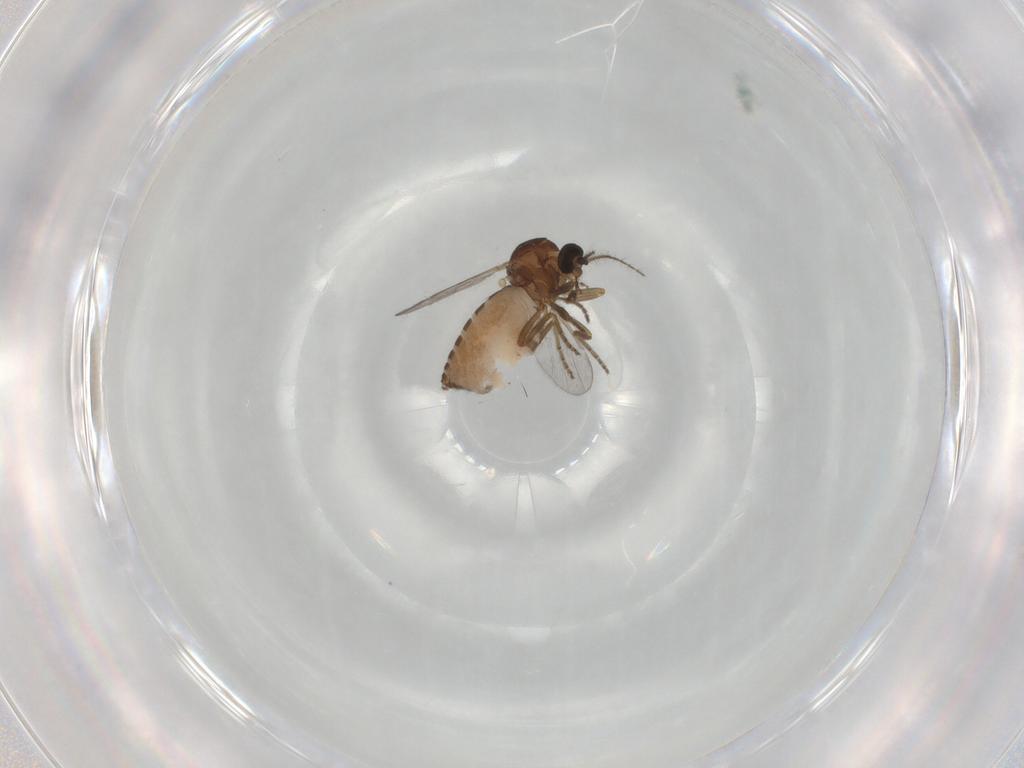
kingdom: Animalia
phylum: Arthropoda
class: Insecta
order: Diptera
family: Ceratopogonidae
